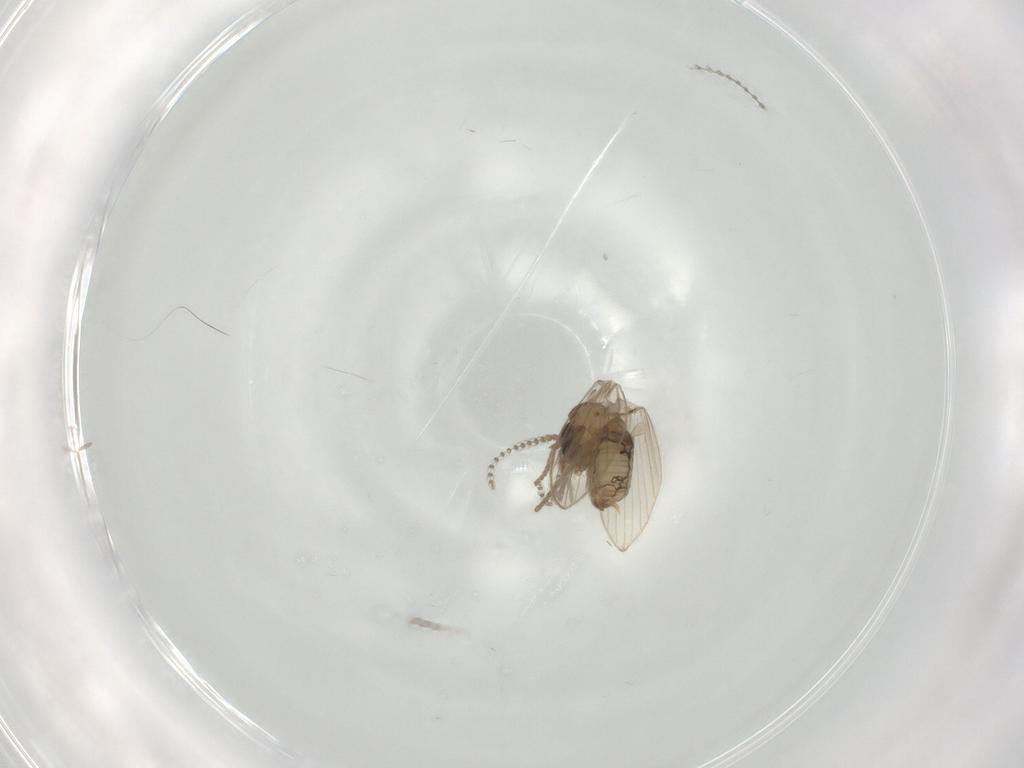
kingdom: Animalia
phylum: Arthropoda
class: Insecta
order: Diptera
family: Psychodidae
